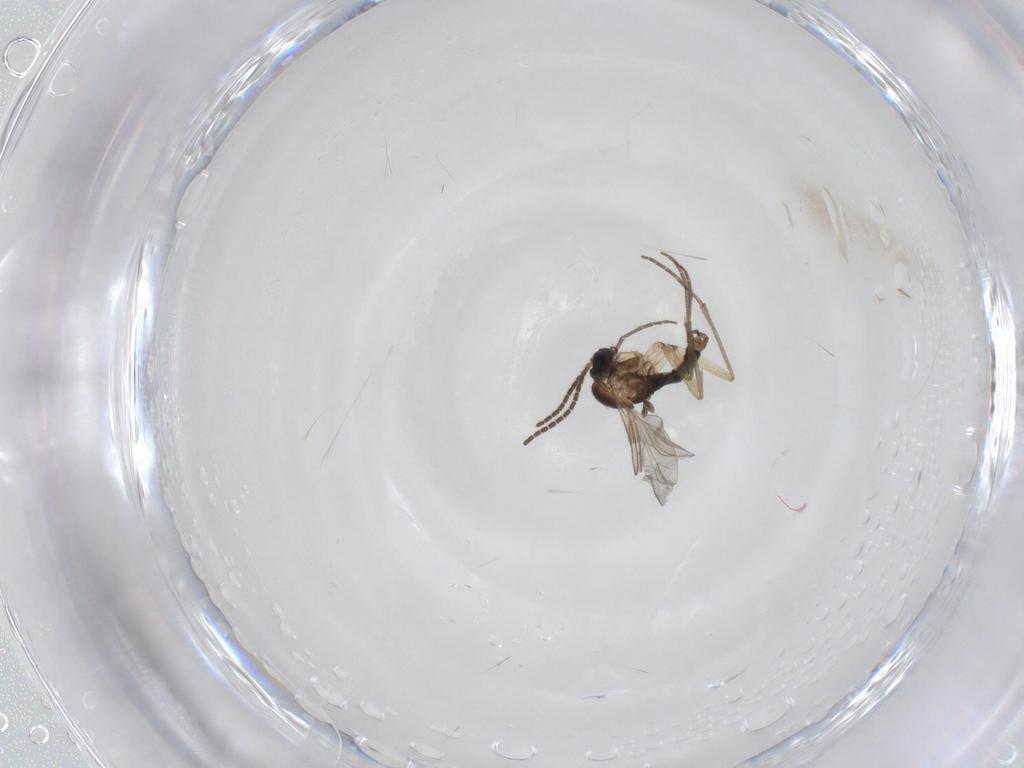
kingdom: Animalia
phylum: Arthropoda
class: Insecta
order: Diptera
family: Sciaridae
